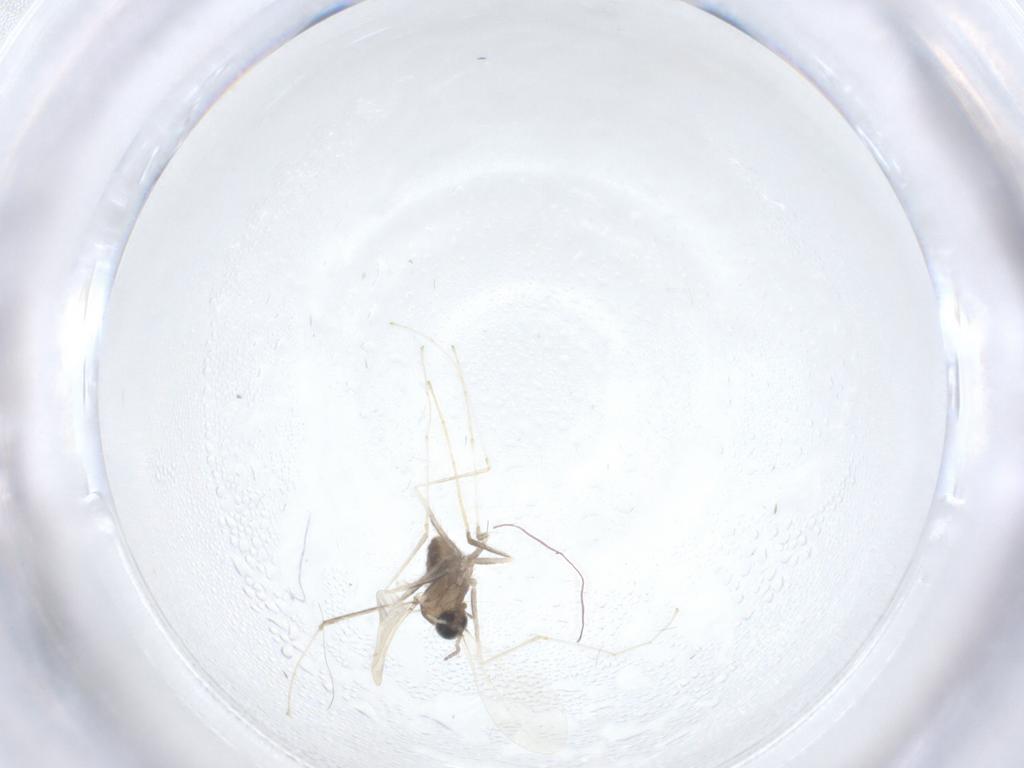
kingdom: Animalia
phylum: Arthropoda
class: Insecta
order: Diptera
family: Cecidomyiidae
